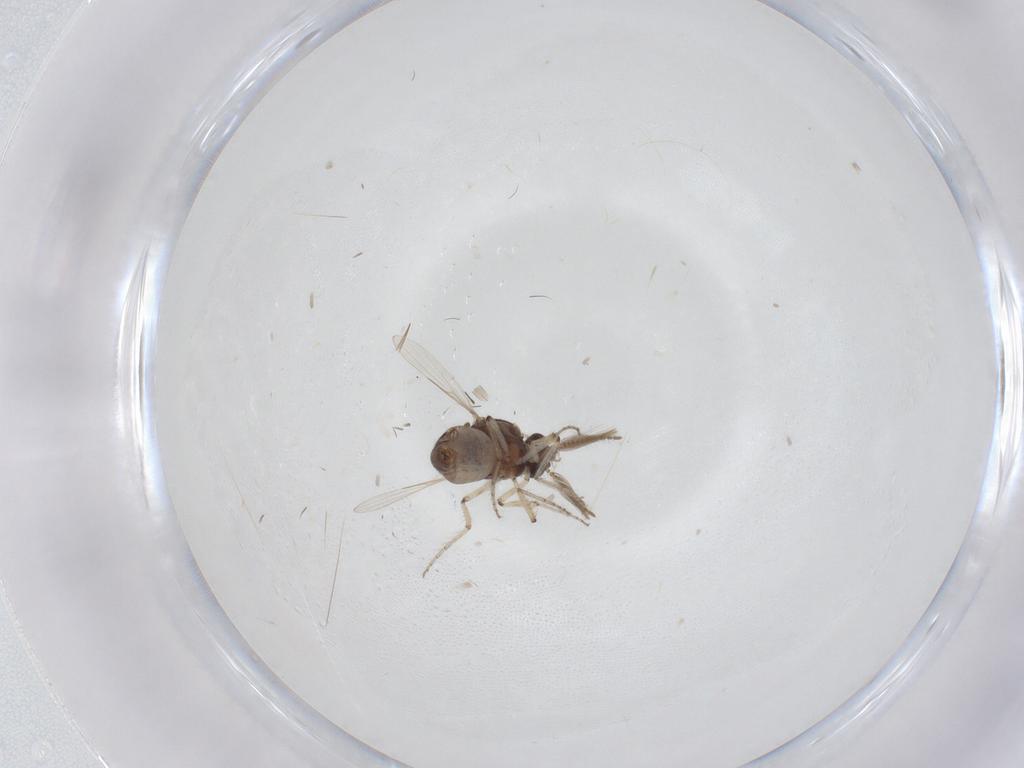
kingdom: Animalia
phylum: Arthropoda
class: Insecta
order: Diptera
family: Ceratopogonidae
